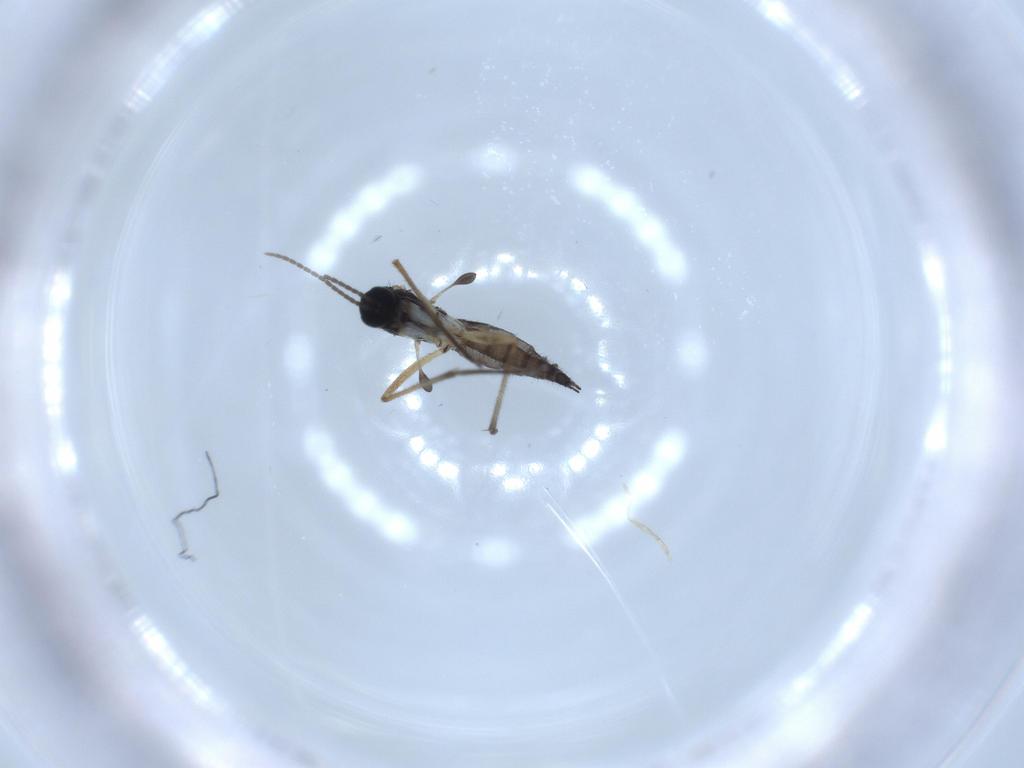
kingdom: Animalia
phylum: Arthropoda
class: Insecta
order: Diptera
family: Sciaridae
